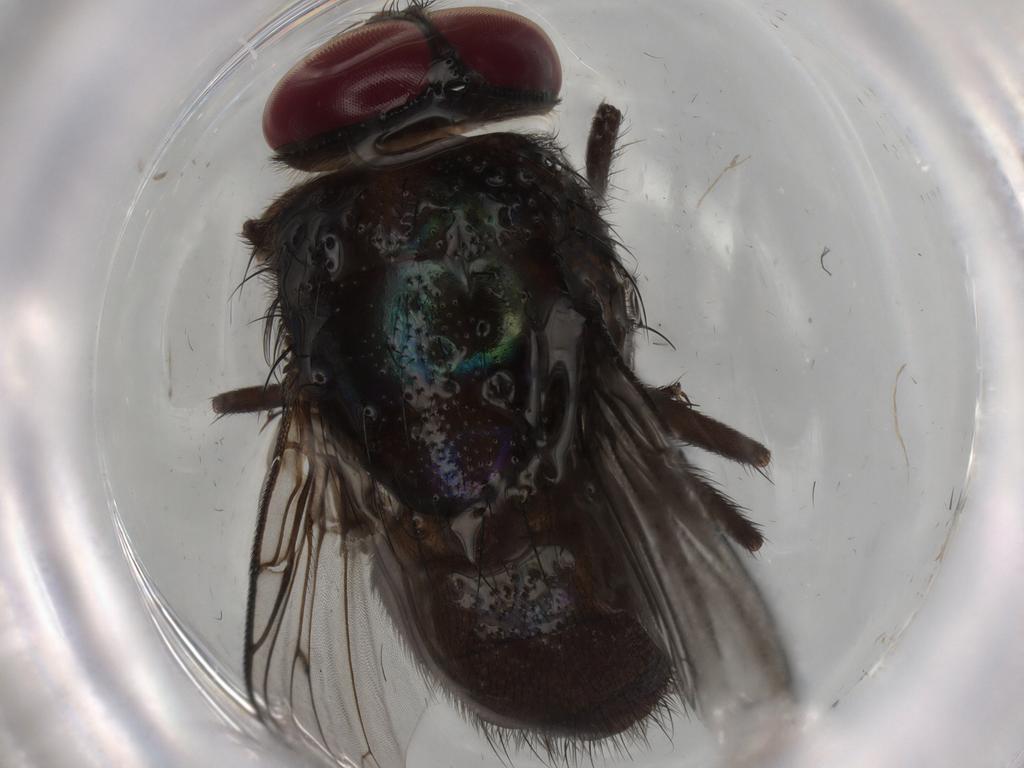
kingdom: Animalia
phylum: Arthropoda
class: Insecta
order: Diptera
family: Calliphoridae
